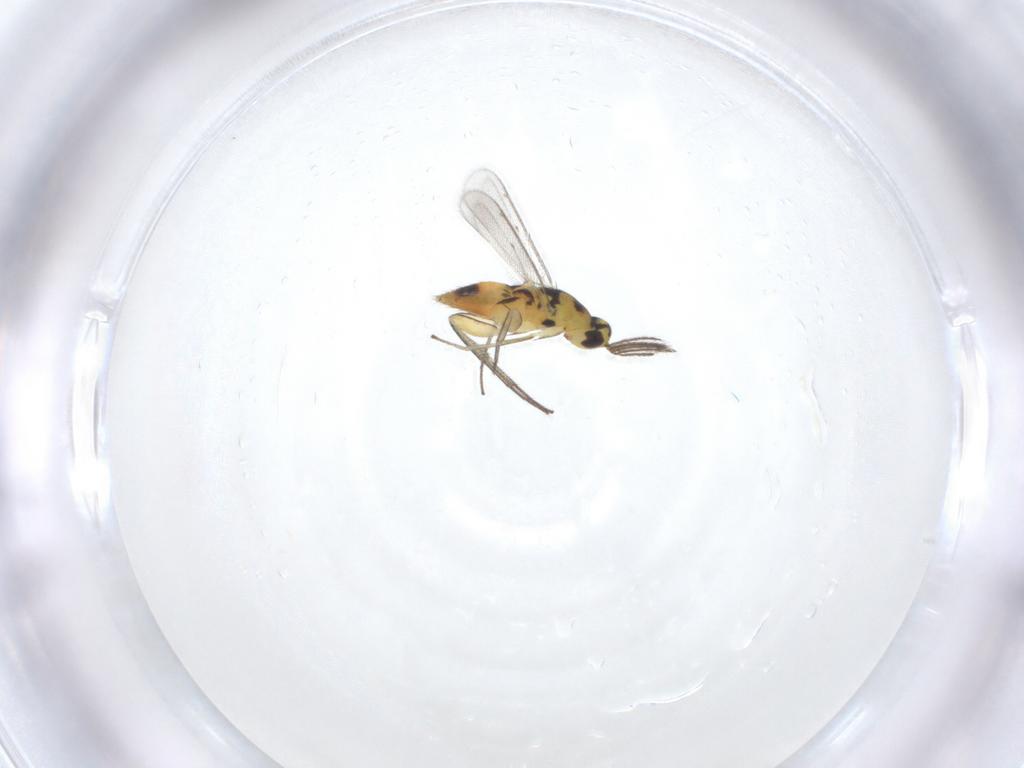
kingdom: Animalia
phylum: Arthropoda
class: Insecta
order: Hymenoptera
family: Eulophidae
